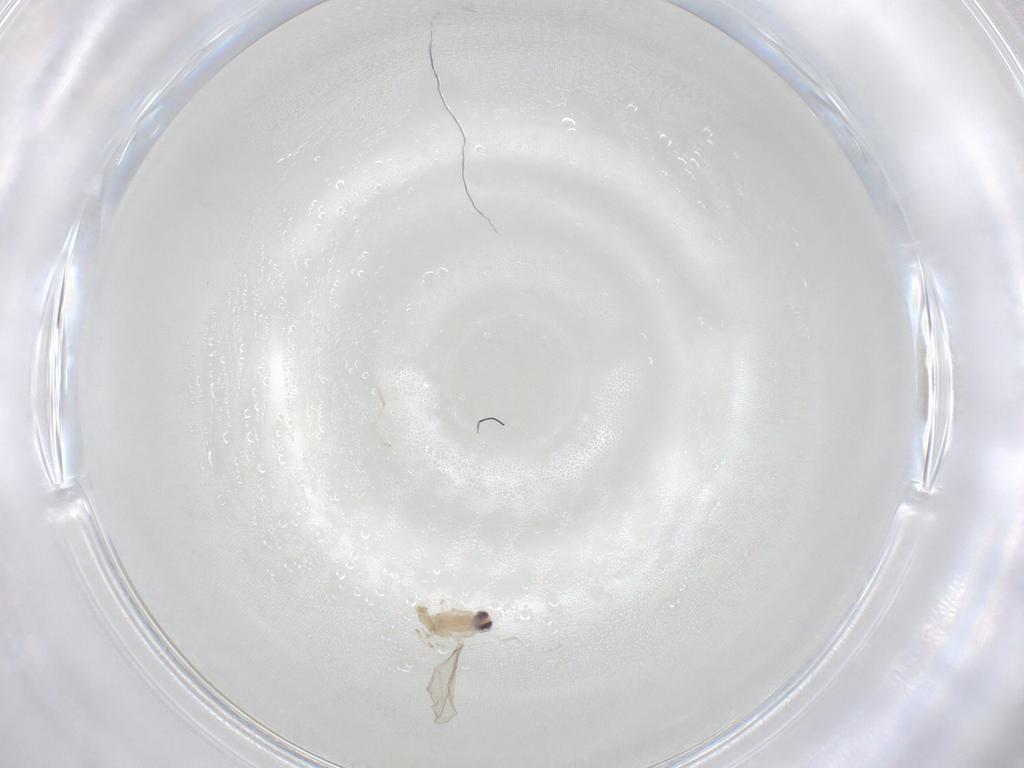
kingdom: Animalia
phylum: Arthropoda
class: Insecta
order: Diptera
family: Cecidomyiidae
